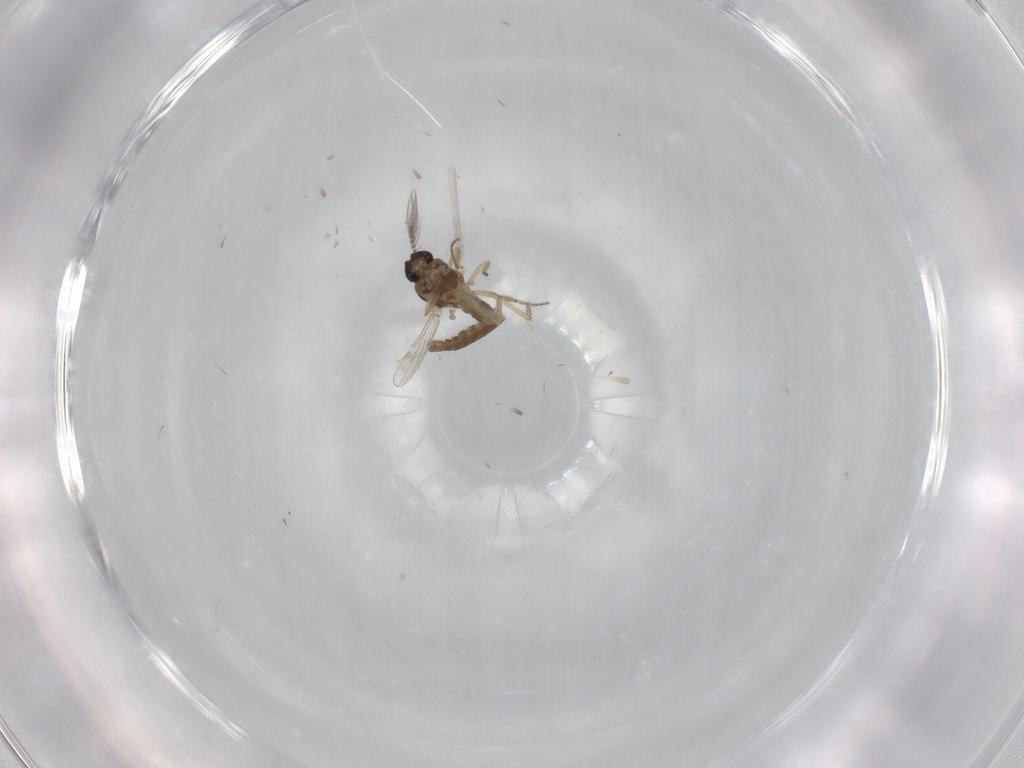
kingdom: Animalia
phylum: Arthropoda
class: Insecta
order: Diptera
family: Ceratopogonidae
